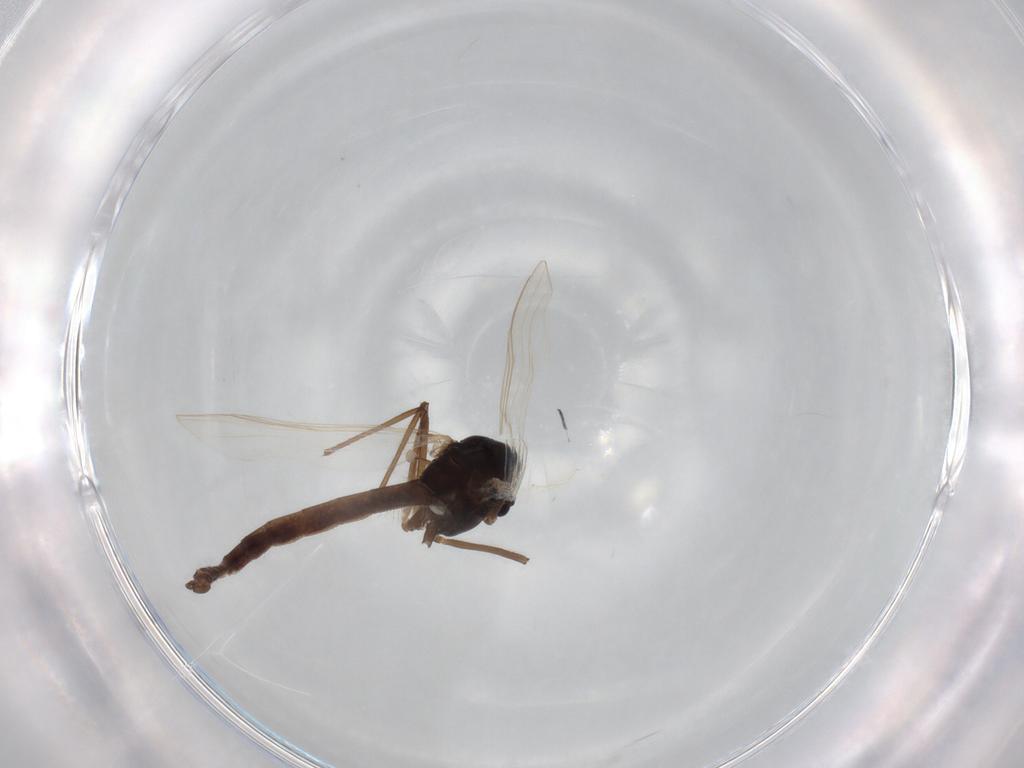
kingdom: Animalia
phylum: Arthropoda
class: Insecta
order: Diptera
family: Chironomidae
